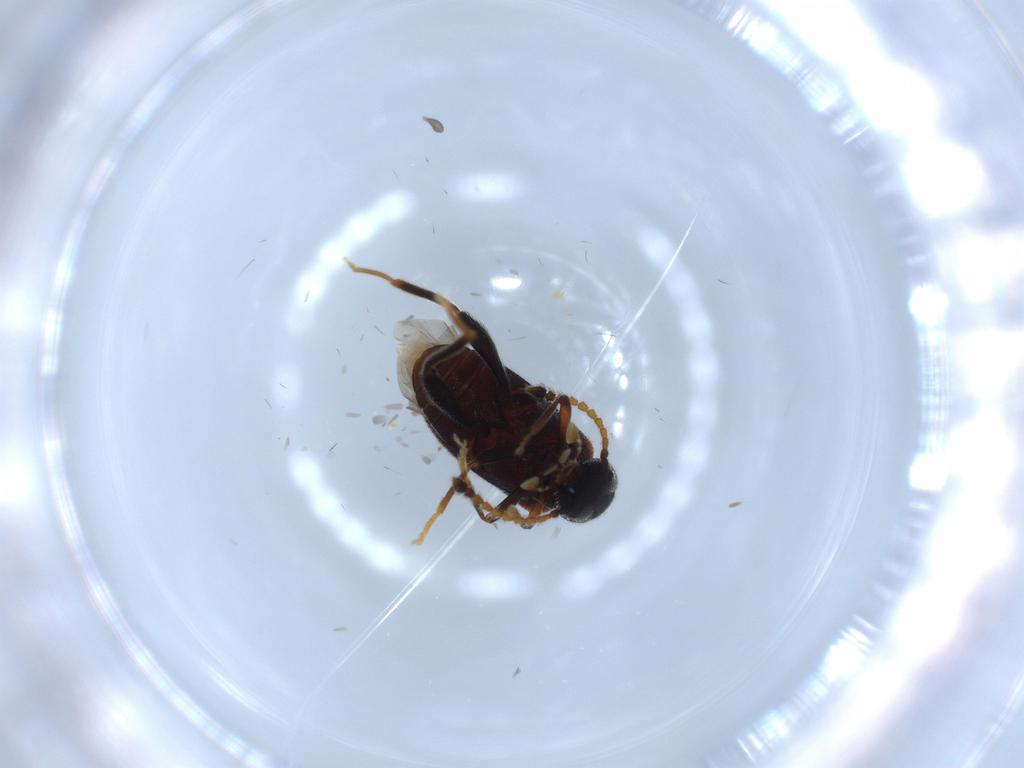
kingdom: Animalia
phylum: Arthropoda
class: Insecta
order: Coleoptera
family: Aderidae
